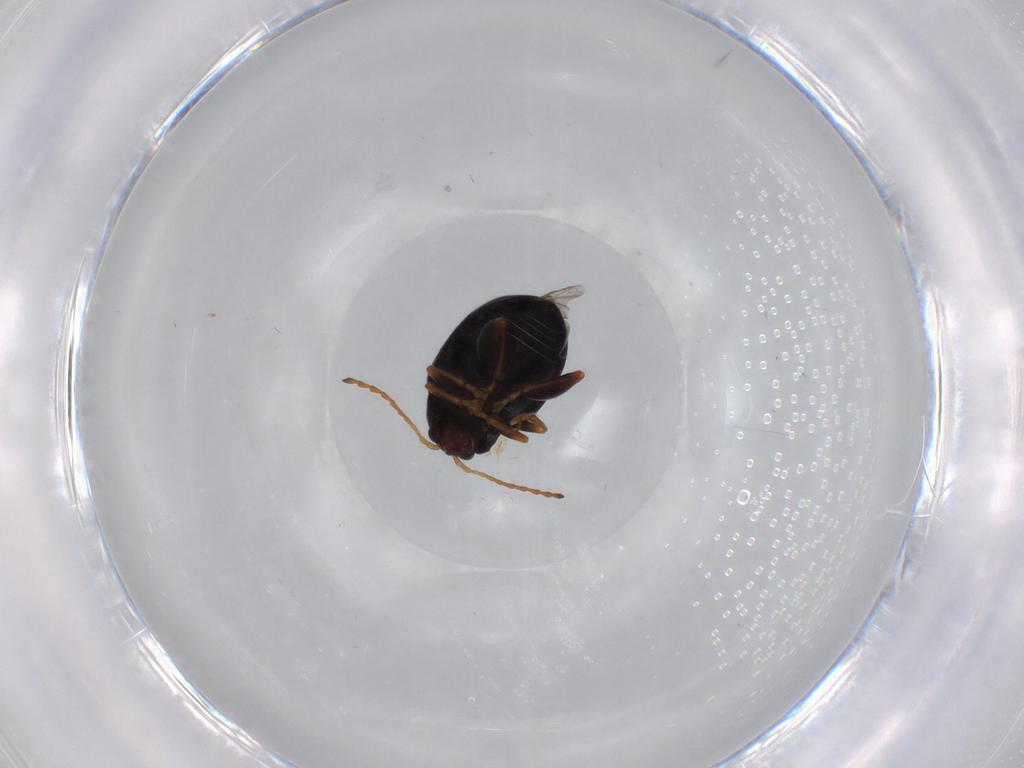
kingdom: Animalia
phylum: Arthropoda
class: Insecta
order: Coleoptera
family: Chrysomelidae
